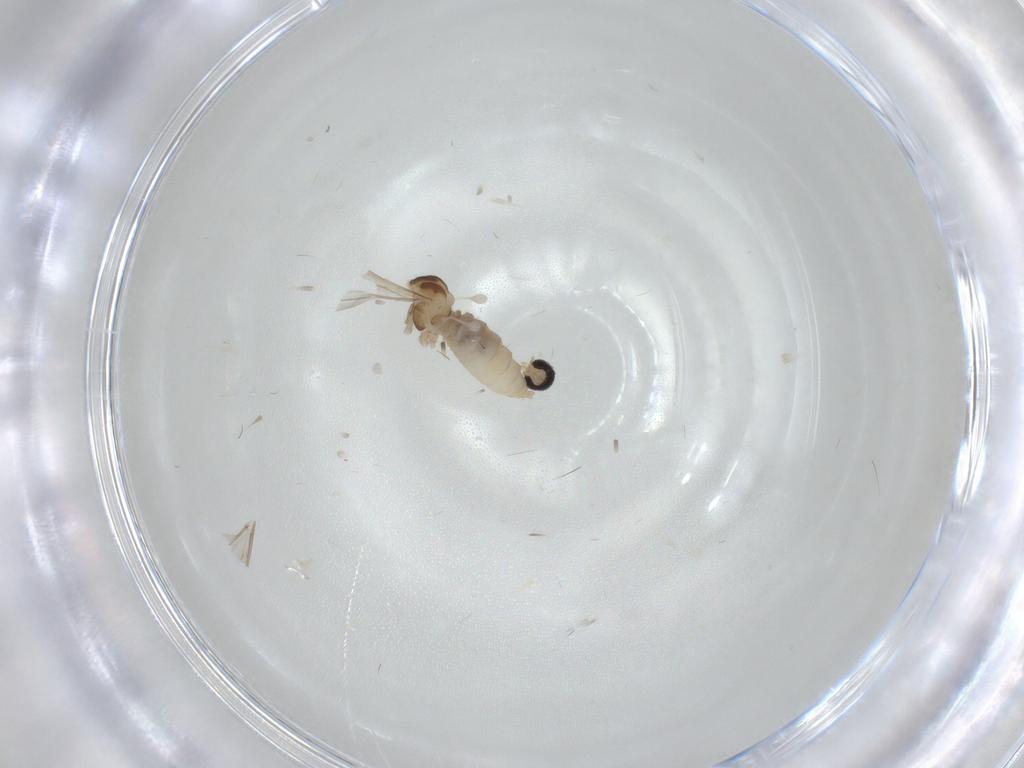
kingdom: Animalia
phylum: Arthropoda
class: Insecta
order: Diptera
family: Cecidomyiidae
